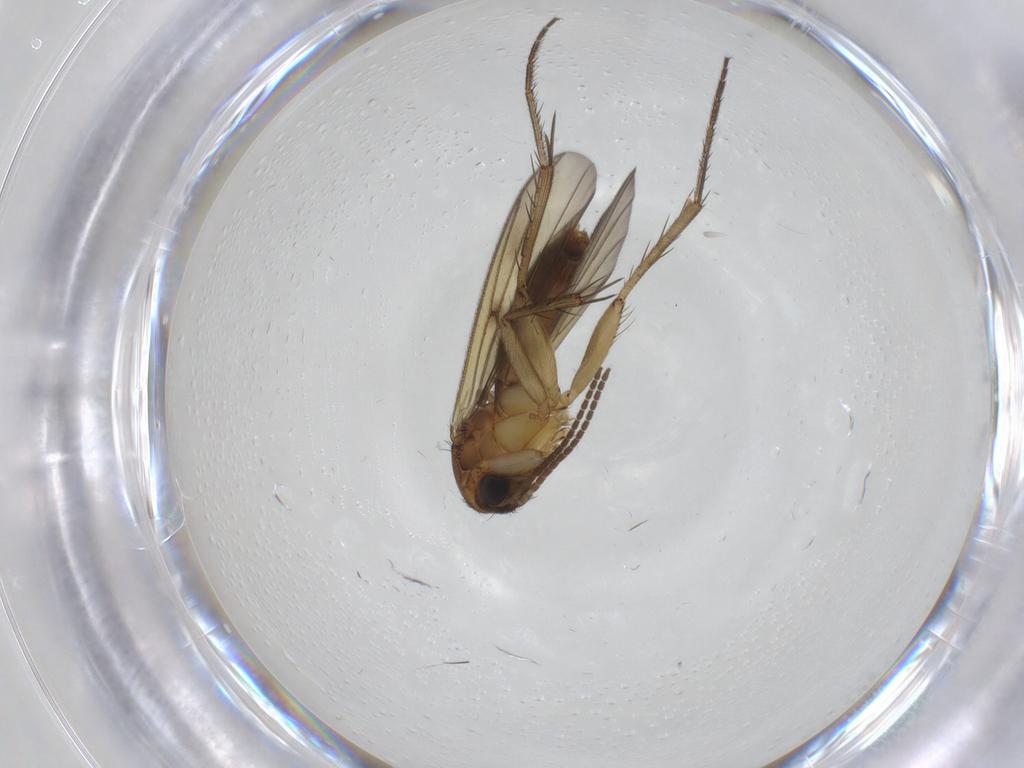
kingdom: Animalia
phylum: Arthropoda
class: Insecta
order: Diptera
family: Mycetophilidae
